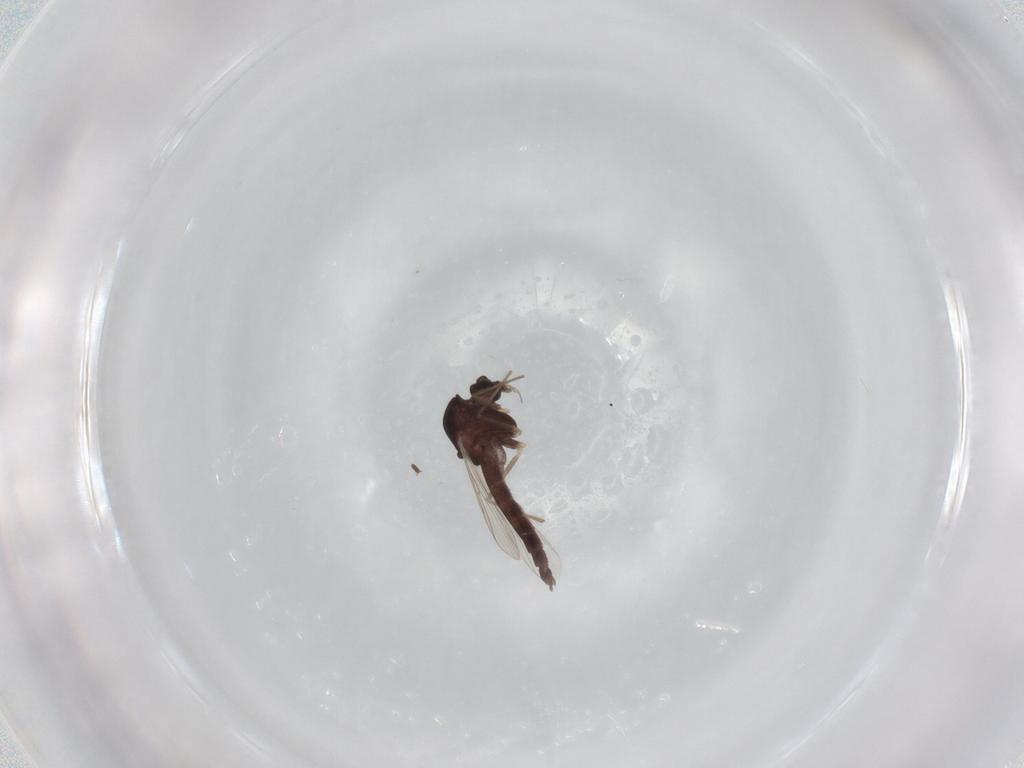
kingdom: Animalia
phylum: Arthropoda
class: Insecta
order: Diptera
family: Chironomidae
